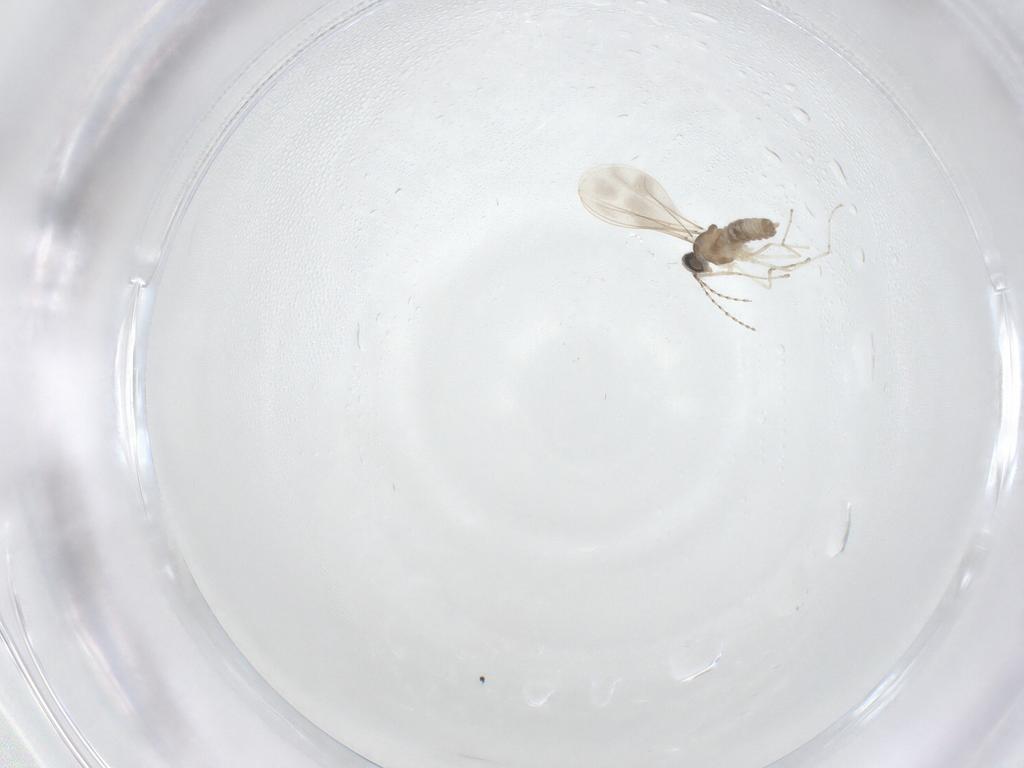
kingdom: Animalia
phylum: Arthropoda
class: Insecta
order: Diptera
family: Cecidomyiidae
